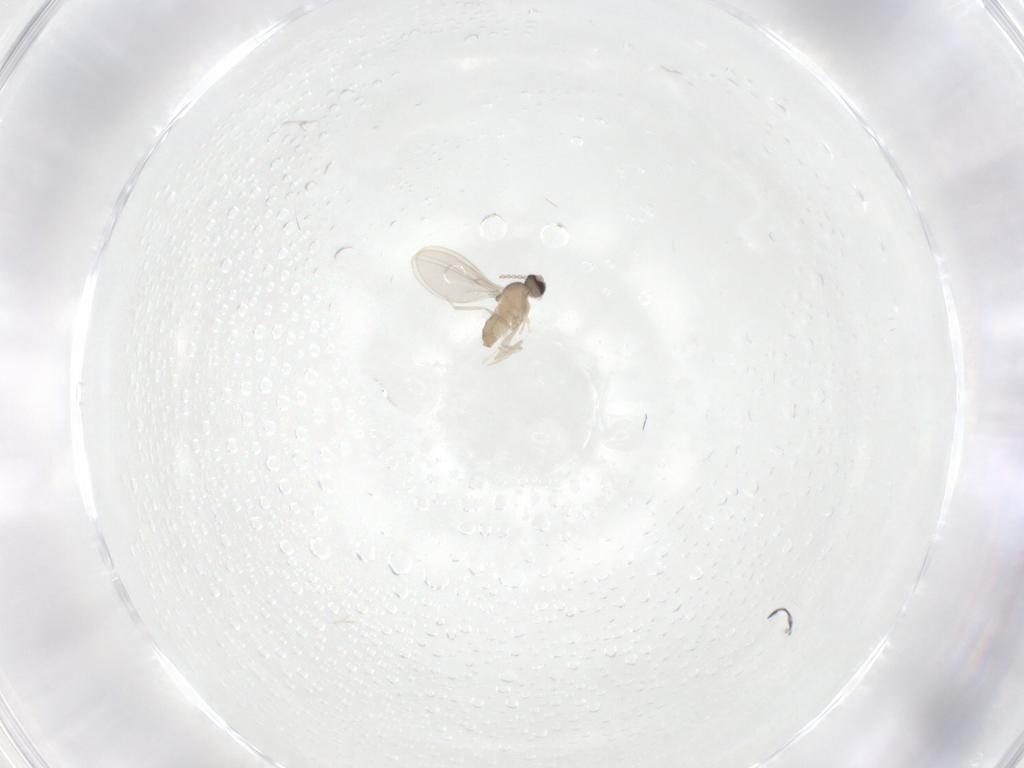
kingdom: Animalia
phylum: Arthropoda
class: Insecta
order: Diptera
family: Cecidomyiidae
